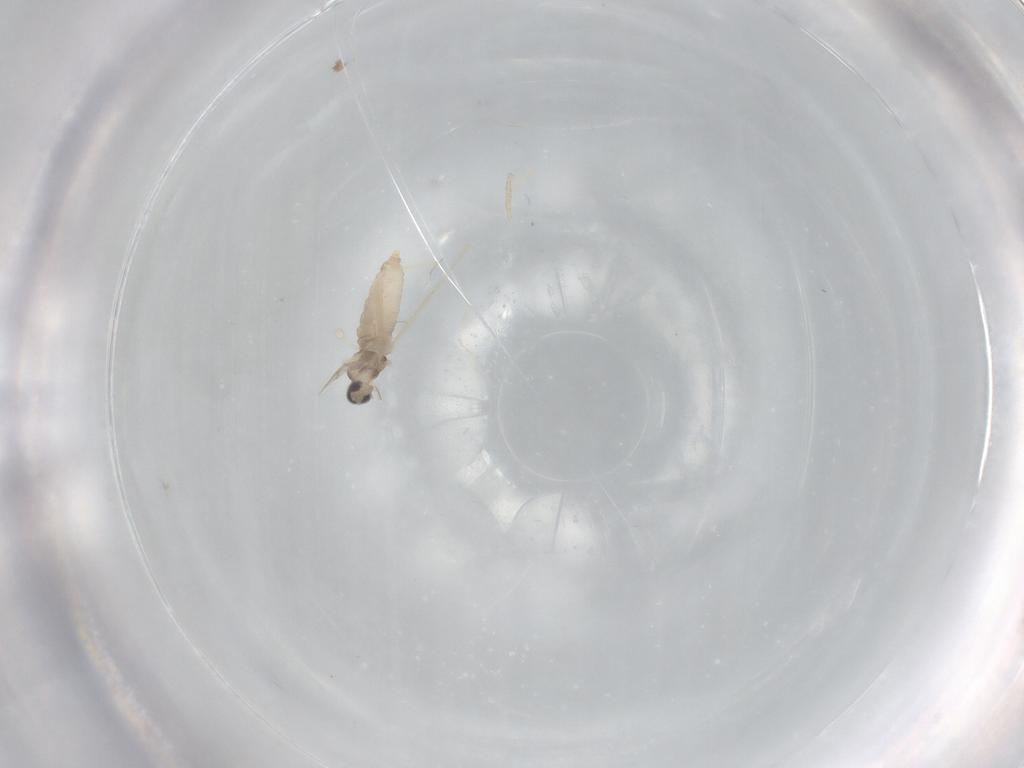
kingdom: Animalia
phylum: Arthropoda
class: Insecta
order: Diptera
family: Cecidomyiidae
